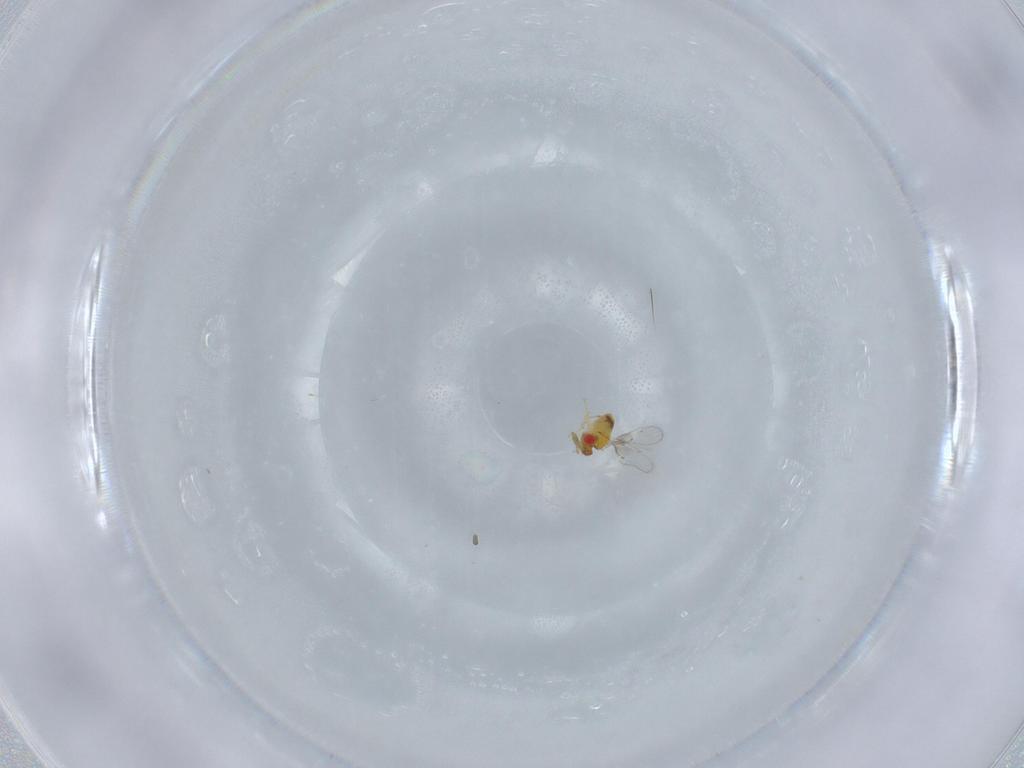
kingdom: Animalia
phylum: Arthropoda
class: Insecta
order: Hymenoptera
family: Trichogrammatidae
